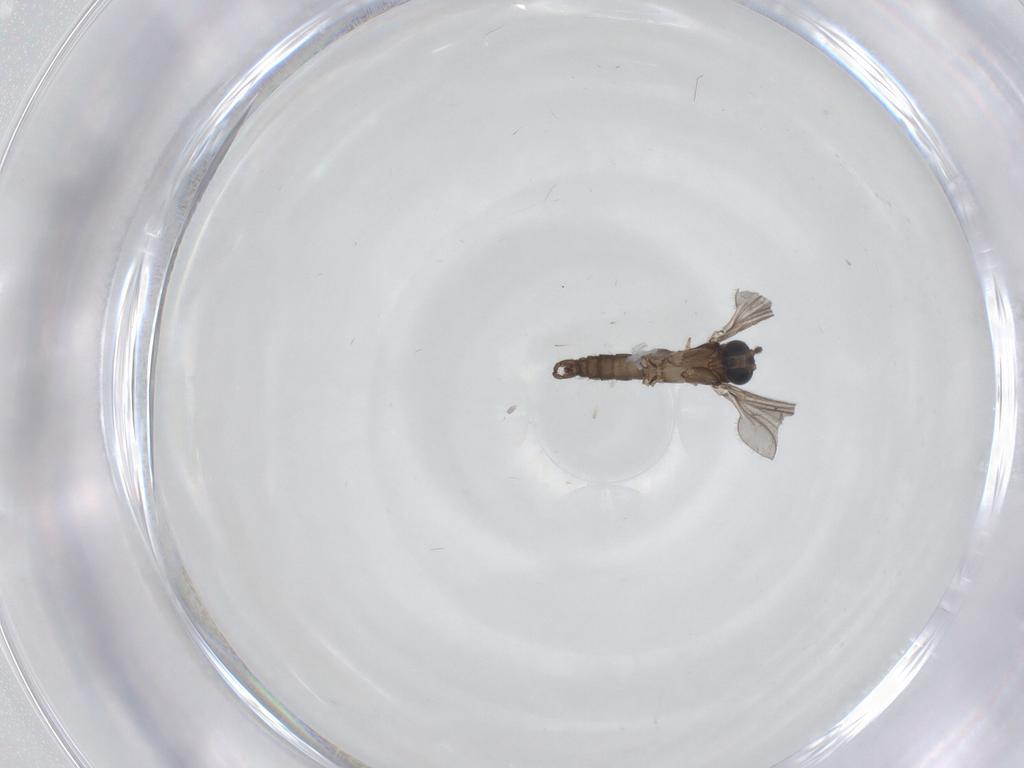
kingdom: Animalia
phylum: Arthropoda
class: Insecta
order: Diptera
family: Sciaridae
